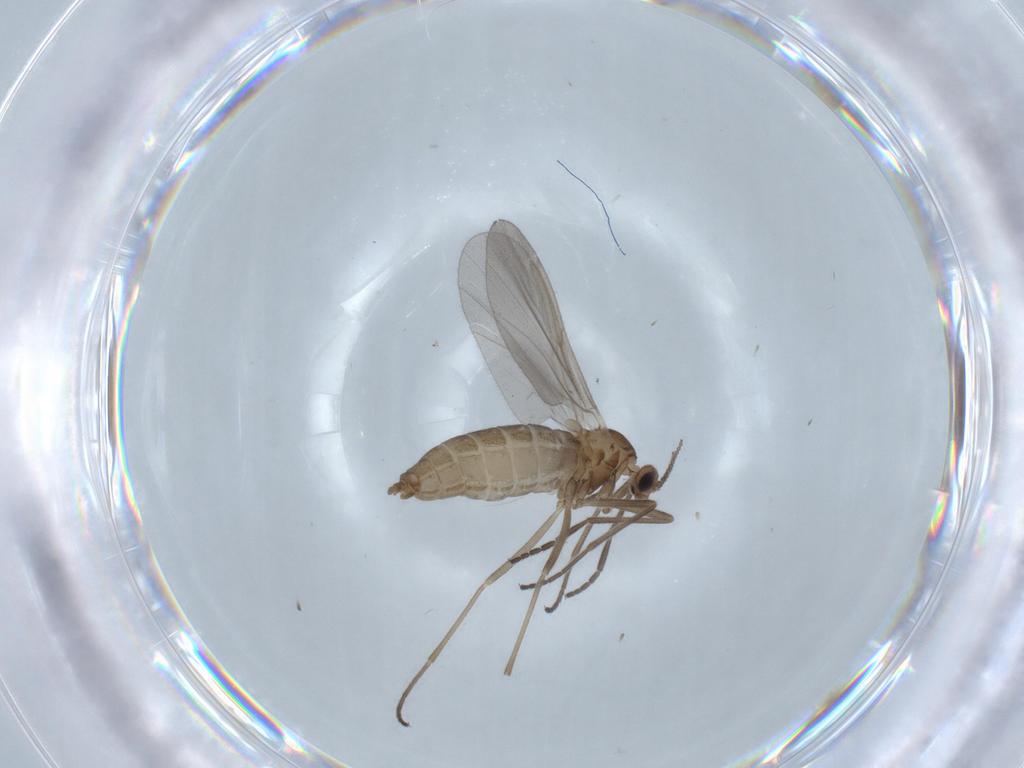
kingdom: Animalia
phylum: Arthropoda
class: Insecta
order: Diptera
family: Cecidomyiidae
